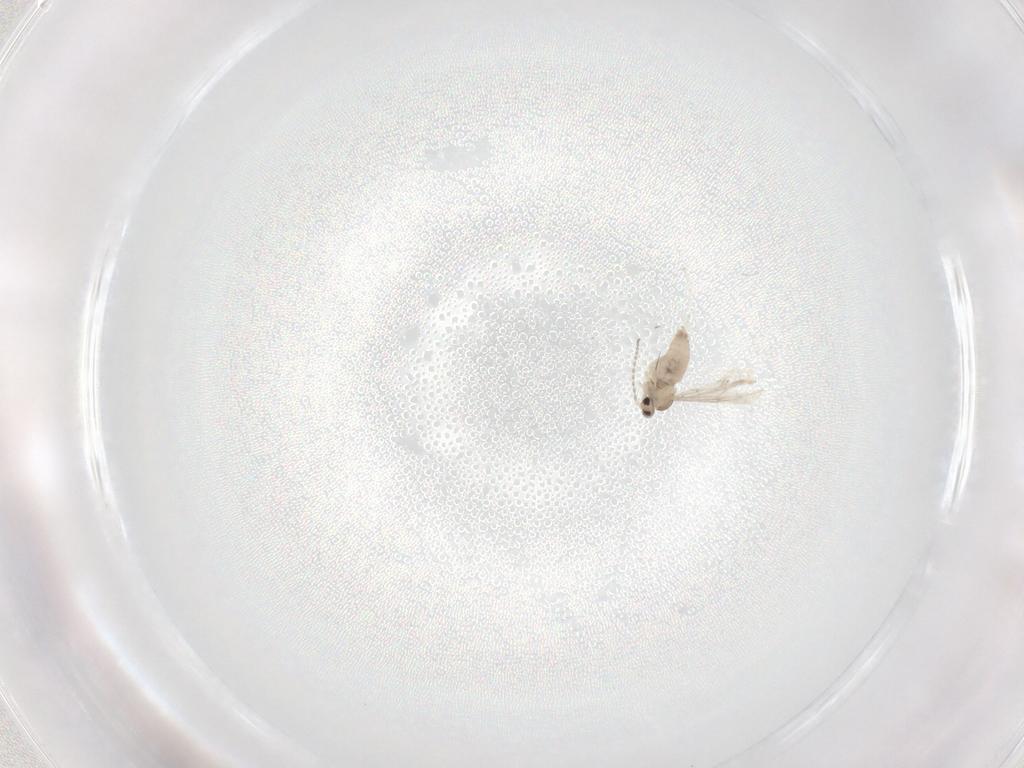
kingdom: Animalia
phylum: Arthropoda
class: Insecta
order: Diptera
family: Cecidomyiidae
